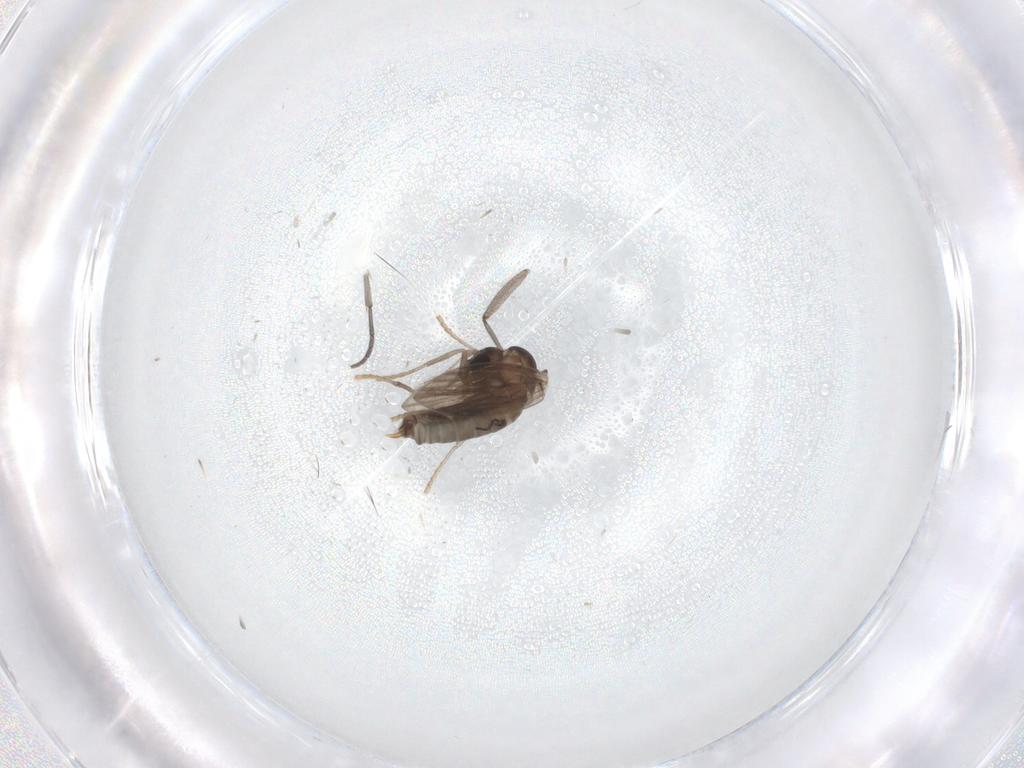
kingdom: Animalia
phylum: Arthropoda
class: Insecta
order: Diptera
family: Psychodidae
